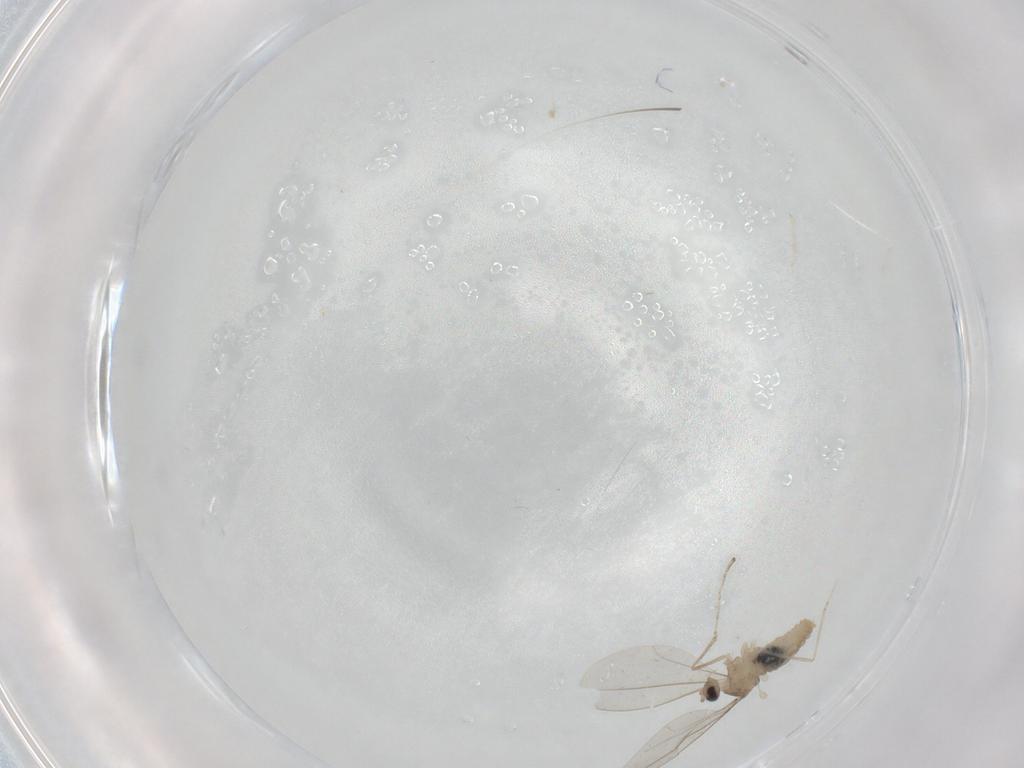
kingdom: Animalia
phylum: Arthropoda
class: Insecta
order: Diptera
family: Cecidomyiidae
